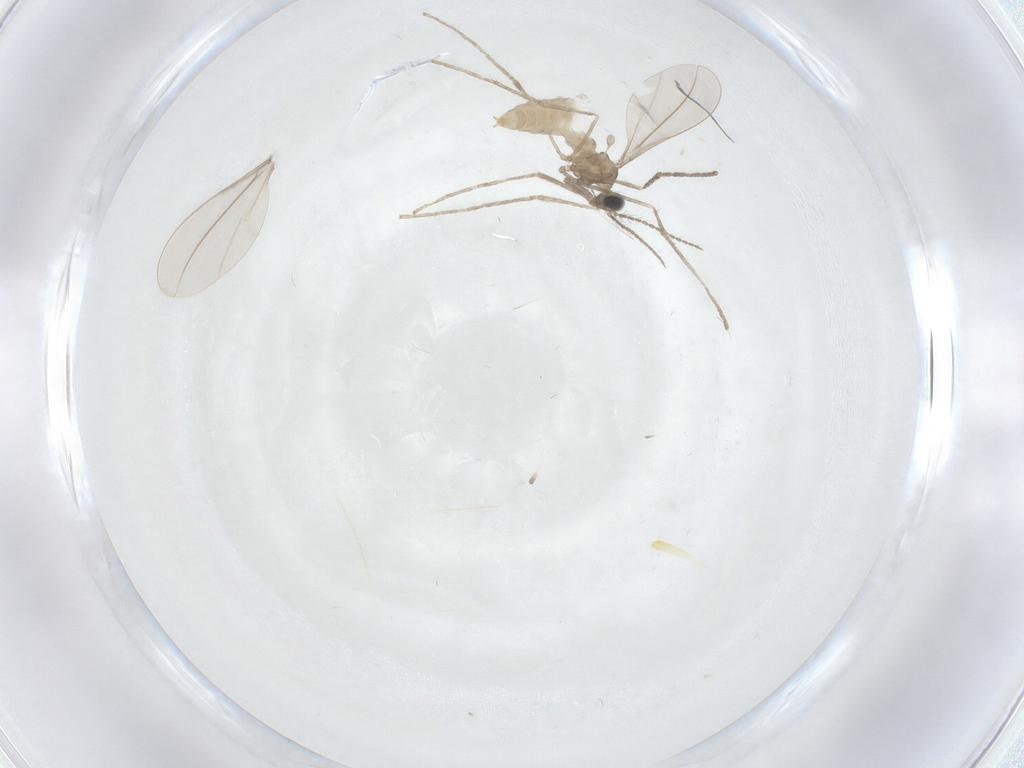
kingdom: Animalia
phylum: Arthropoda
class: Insecta
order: Diptera
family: Cecidomyiidae
